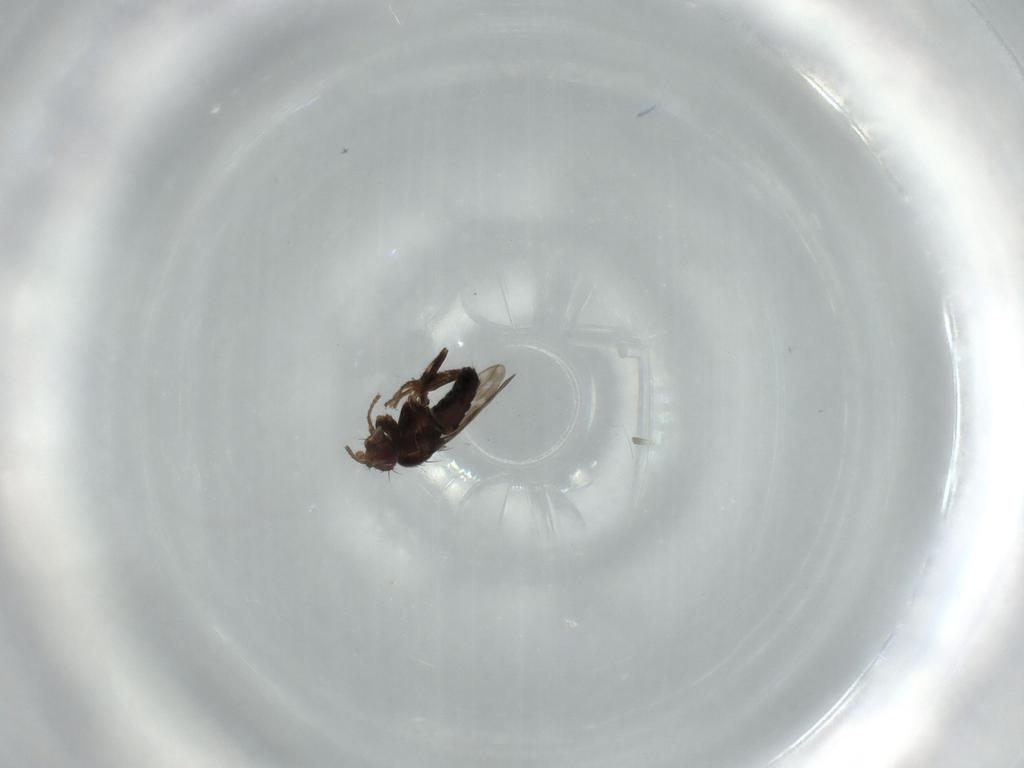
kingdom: Animalia
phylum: Arthropoda
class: Insecta
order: Diptera
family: Sphaeroceridae
